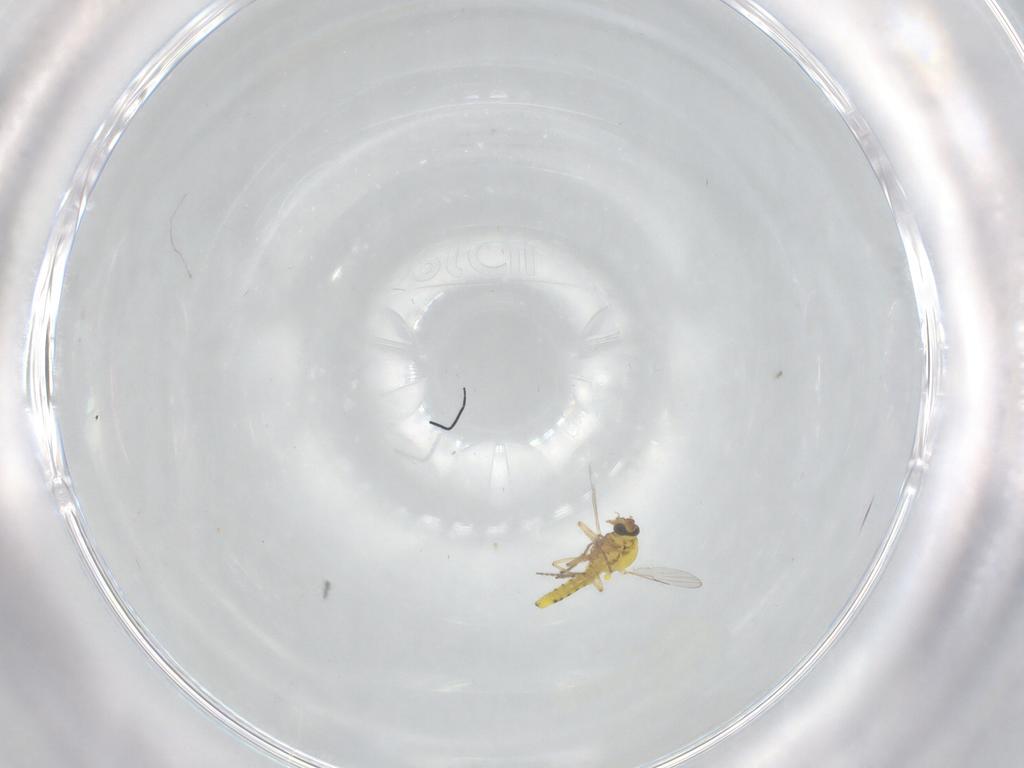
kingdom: Animalia
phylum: Arthropoda
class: Insecta
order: Diptera
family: Ceratopogonidae
